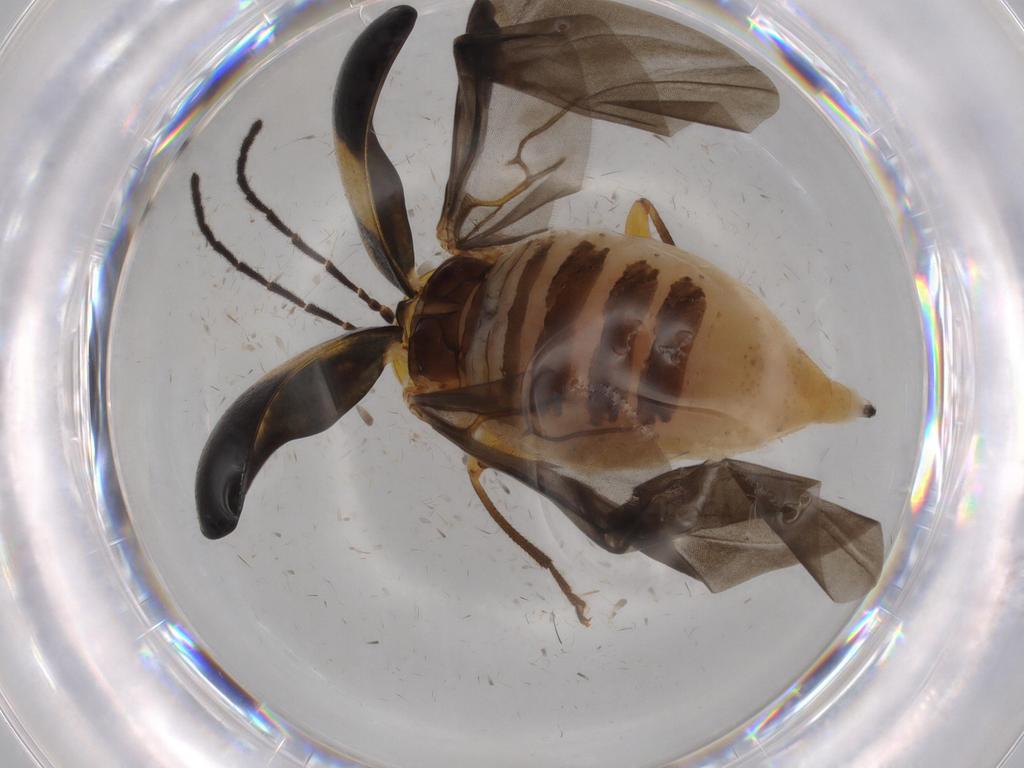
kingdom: Animalia
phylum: Arthropoda
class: Insecta
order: Coleoptera
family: Chrysomelidae
